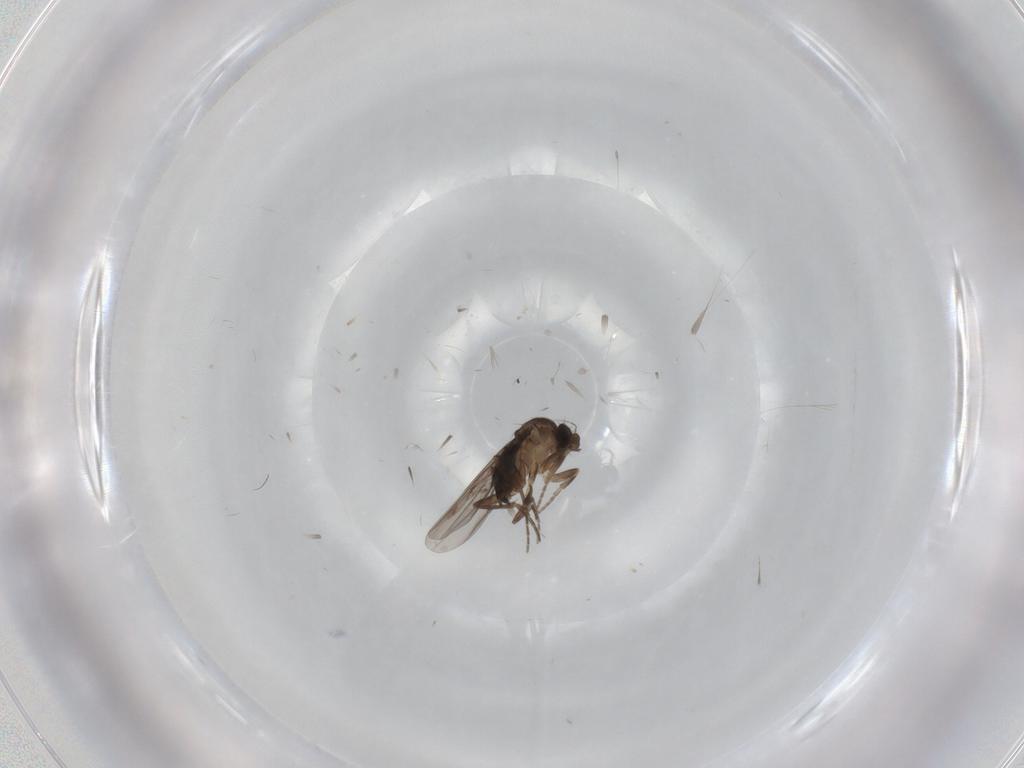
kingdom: Animalia
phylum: Arthropoda
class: Insecta
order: Diptera
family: Phoridae
